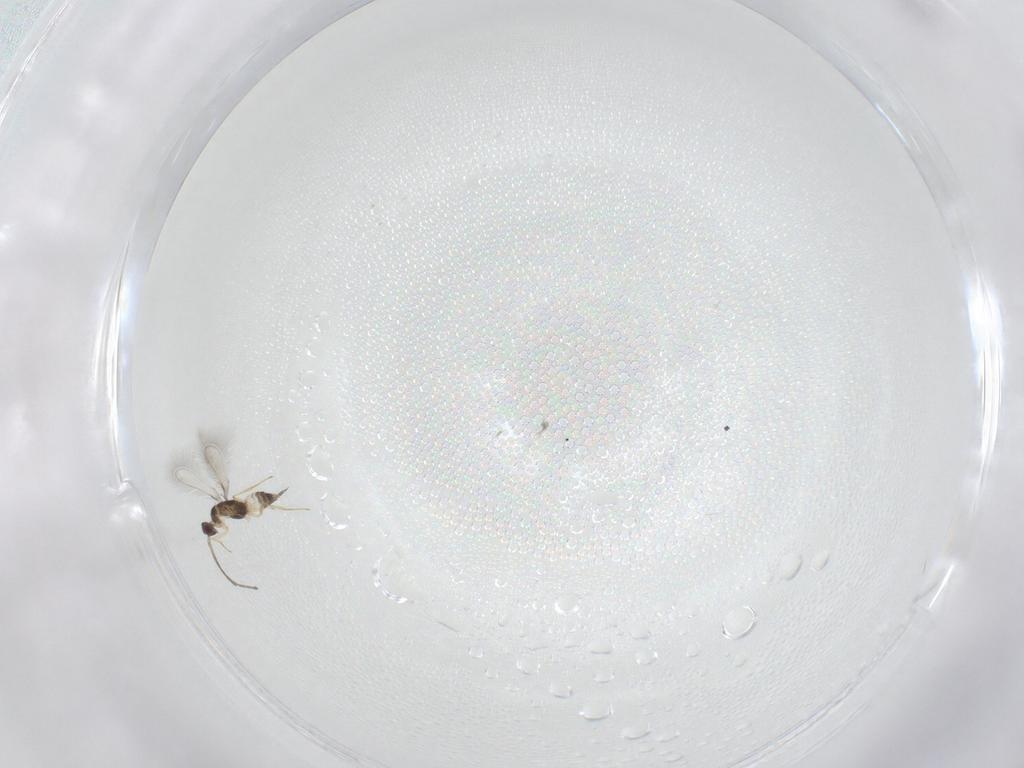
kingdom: Animalia
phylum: Arthropoda
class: Insecta
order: Hymenoptera
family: Mymaridae
